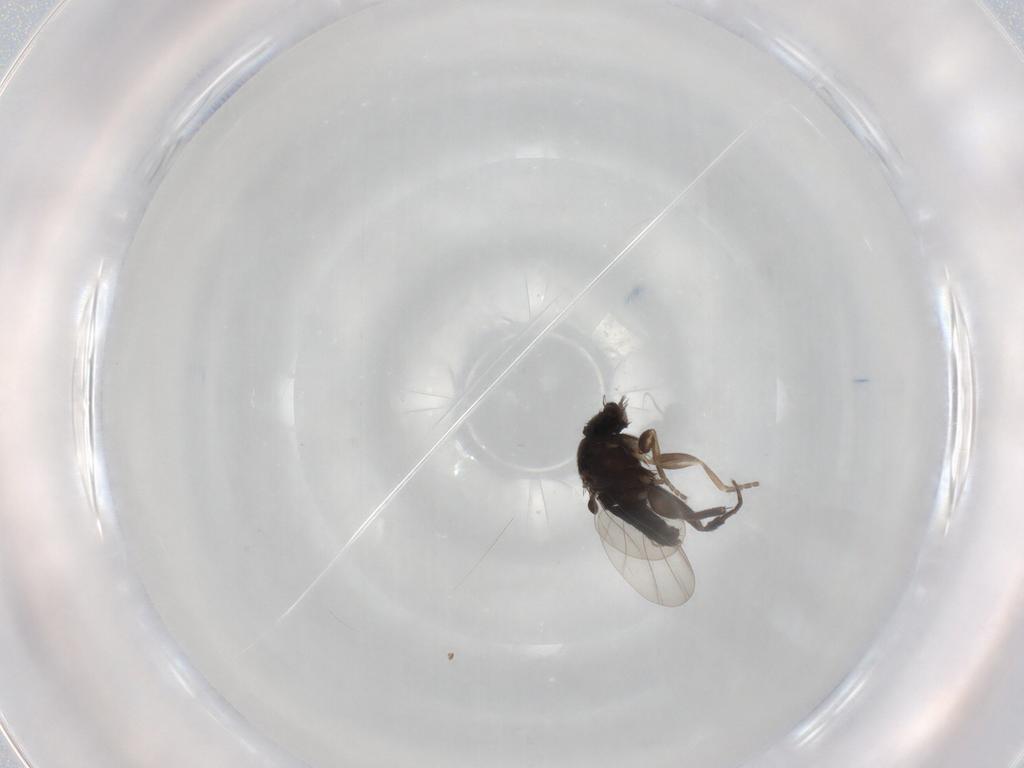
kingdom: Animalia
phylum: Arthropoda
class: Insecta
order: Diptera
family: Phoridae
